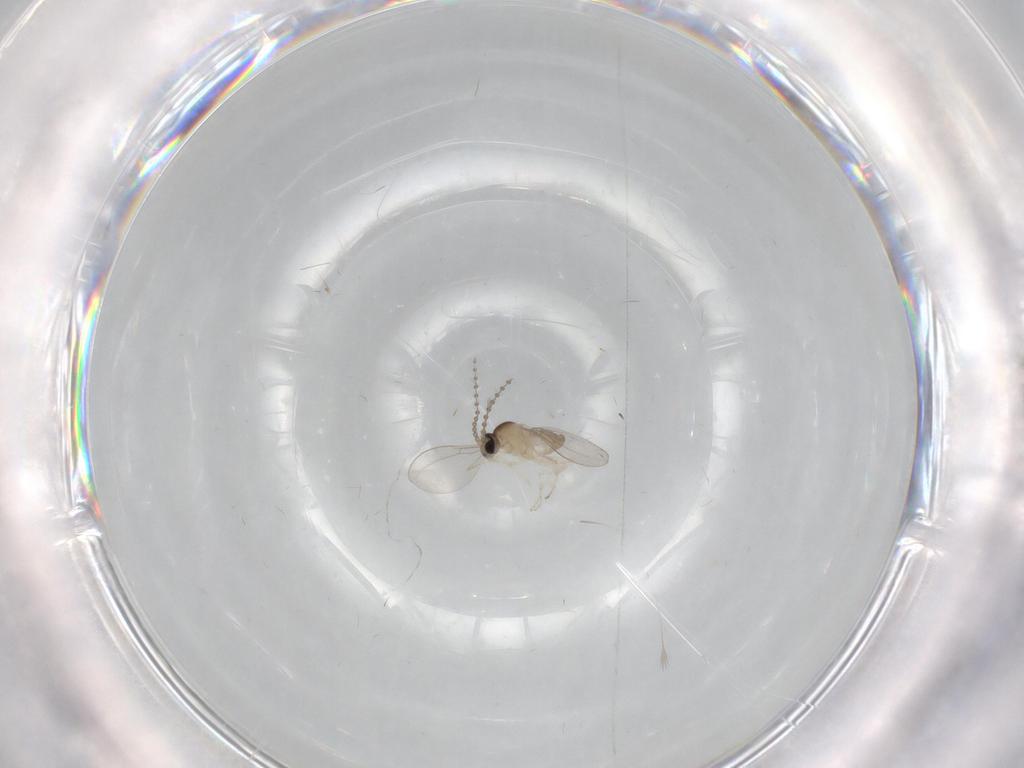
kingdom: Animalia
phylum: Arthropoda
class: Insecta
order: Diptera
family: Cecidomyiidae
